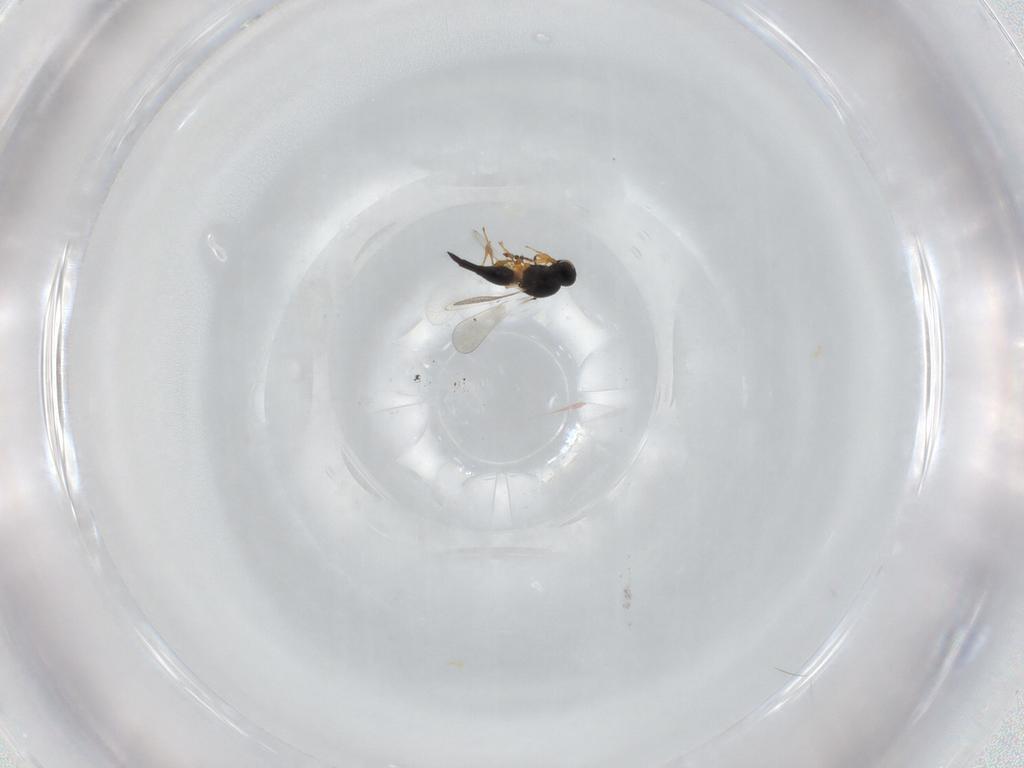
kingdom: Animalia
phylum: Arthropoda
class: Insecta
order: Hymenoptera
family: Platygastridae
